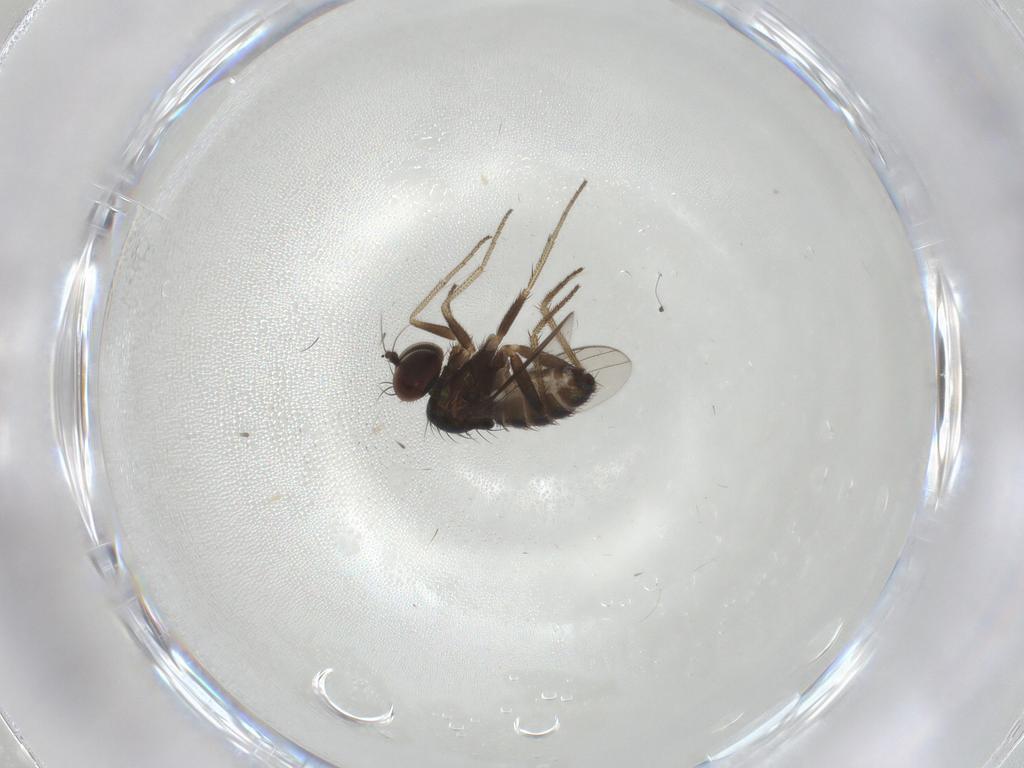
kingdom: Animalia
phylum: Arthropoda
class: Insecta
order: Diptera
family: Dolichopodidae
